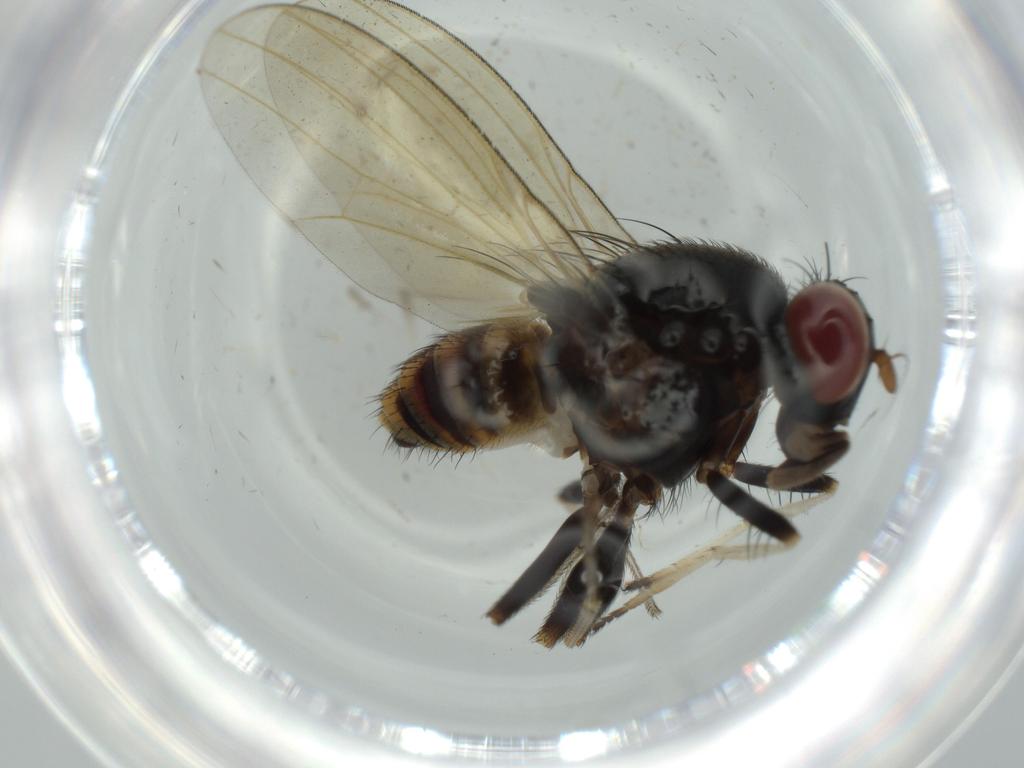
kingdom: Animalia
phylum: Arthropoda
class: Insecta
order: Diptera
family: Cecidomyiidae
